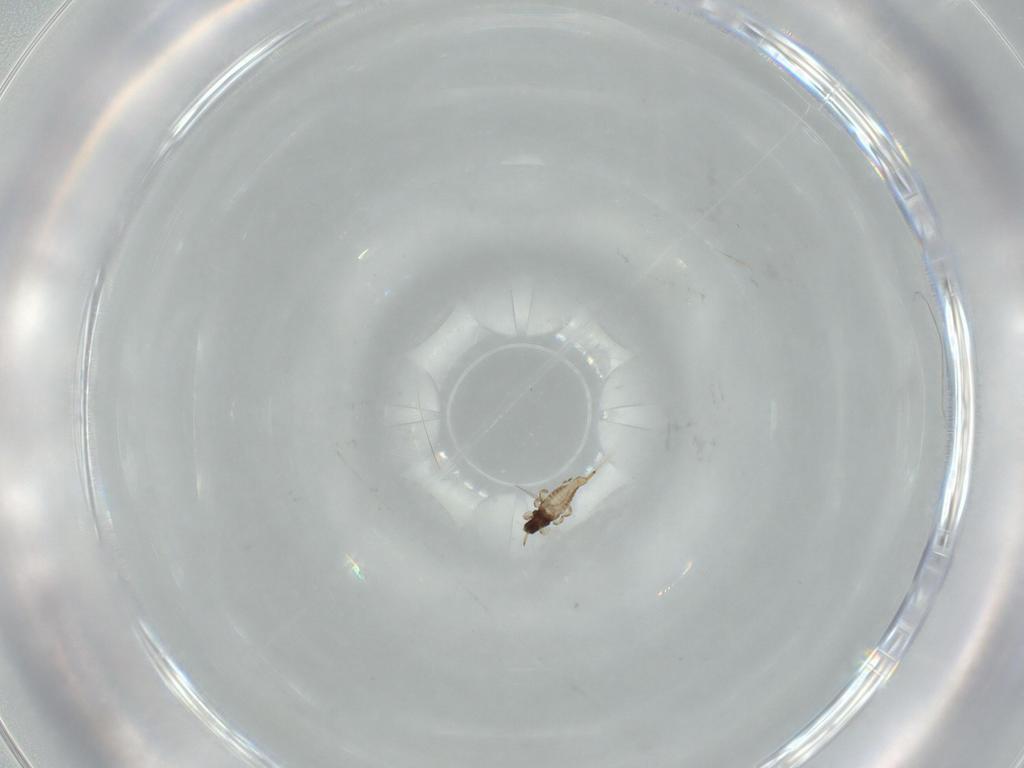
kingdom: Animalia
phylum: Arthropoda
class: Insecta
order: Thysanoptera
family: Phlaeothripidae
